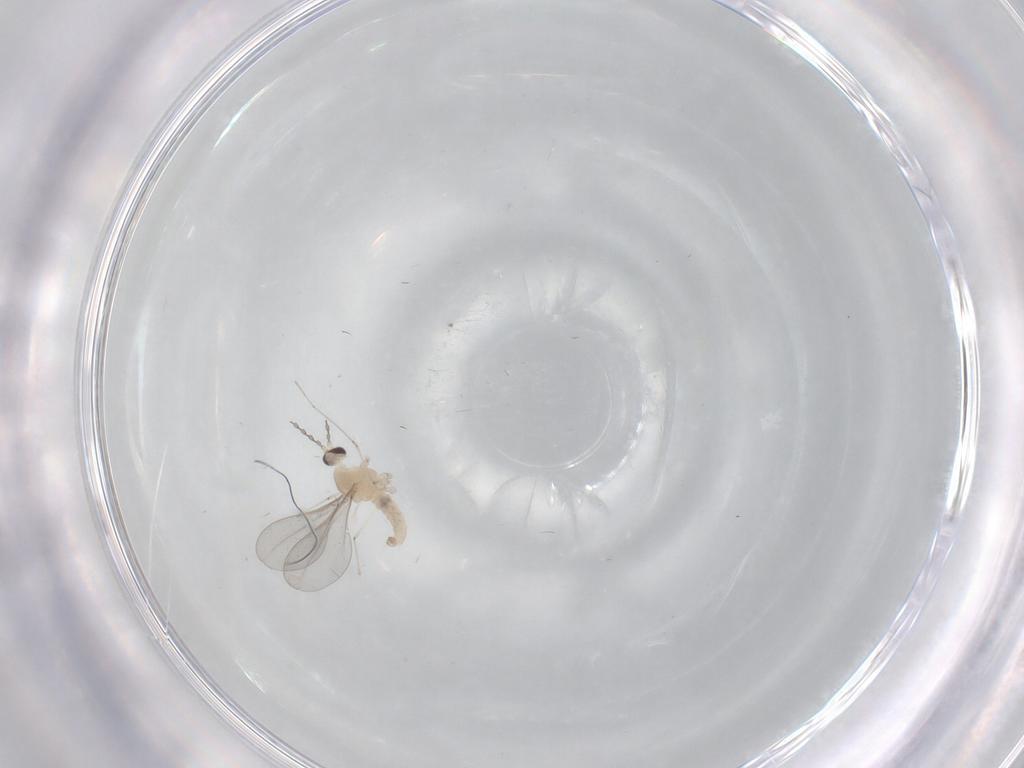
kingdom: Animalia
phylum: Arthropoda
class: Insecta
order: Diptera
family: Cecidomyiidae
